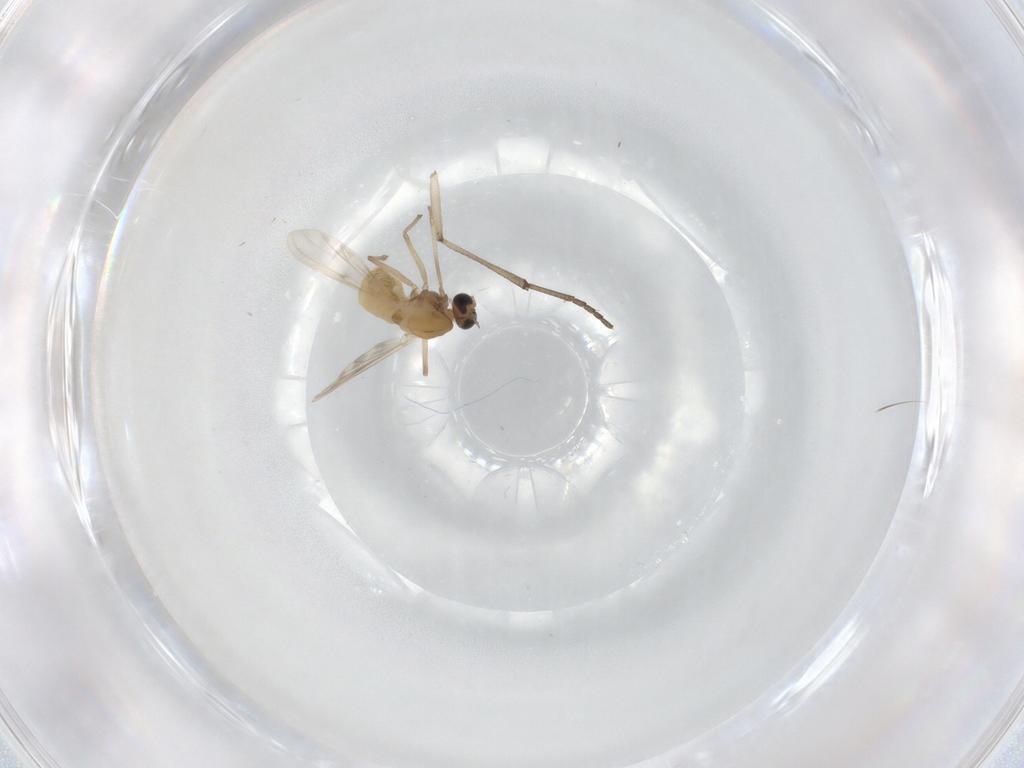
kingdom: Animalia
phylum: Arthropoda
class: Insecta
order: Diptera
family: Chironomidae
